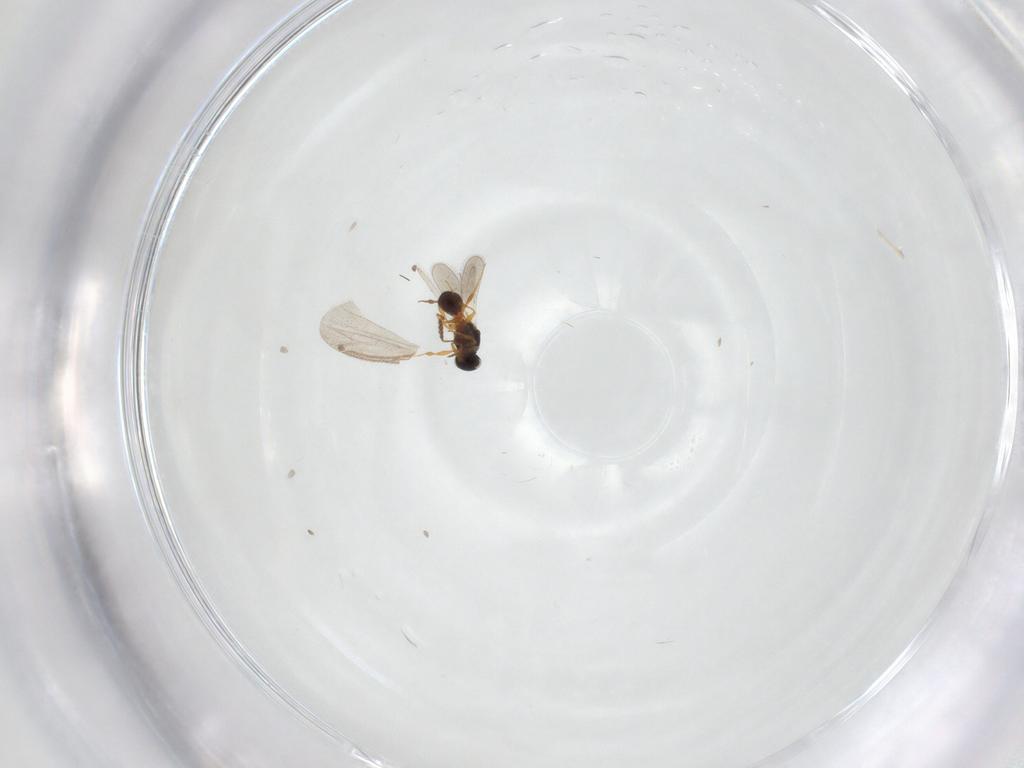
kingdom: Animalia
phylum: Arthropoda
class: Insecta
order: Hymenoptera
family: Platygastridae
